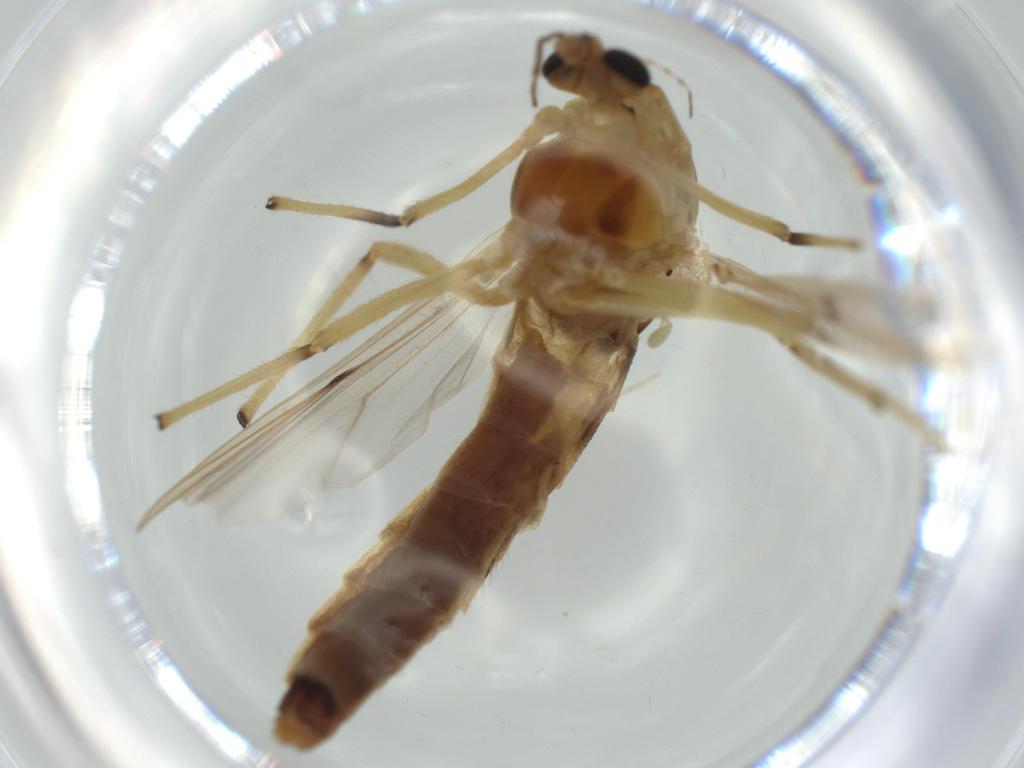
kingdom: Animalia
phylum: Arthropoda
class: Insecta
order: Diptera
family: Chironomidae
